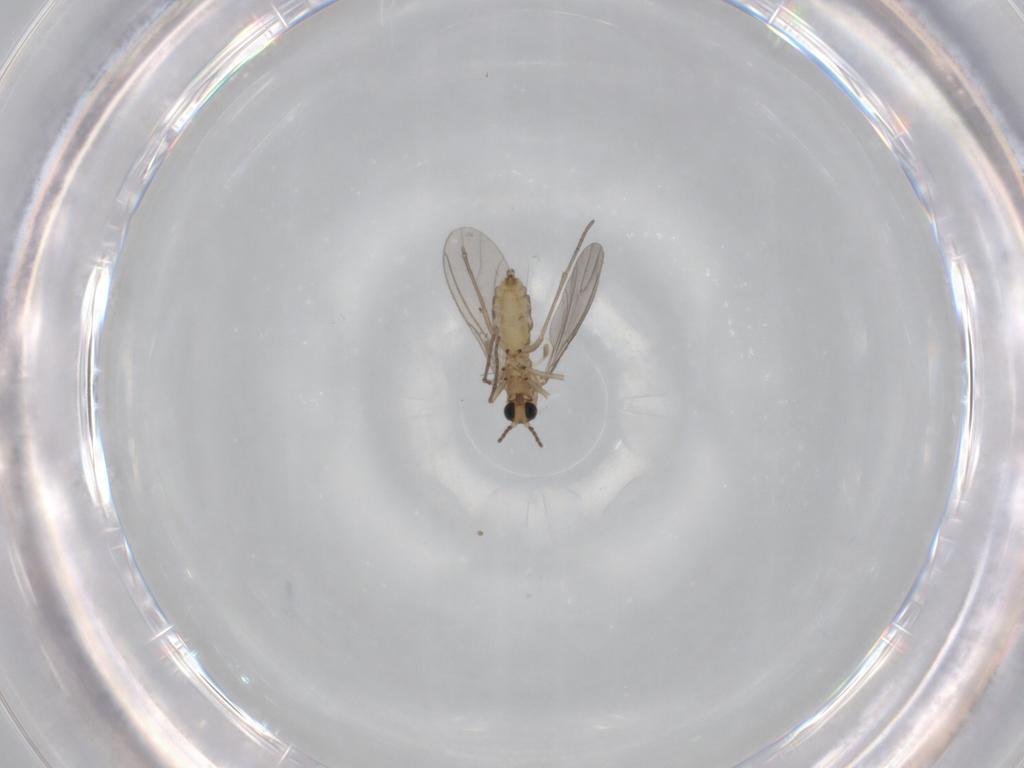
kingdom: Animalia
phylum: Arthropoda
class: Insecta
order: Diptera
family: Sciaridae
